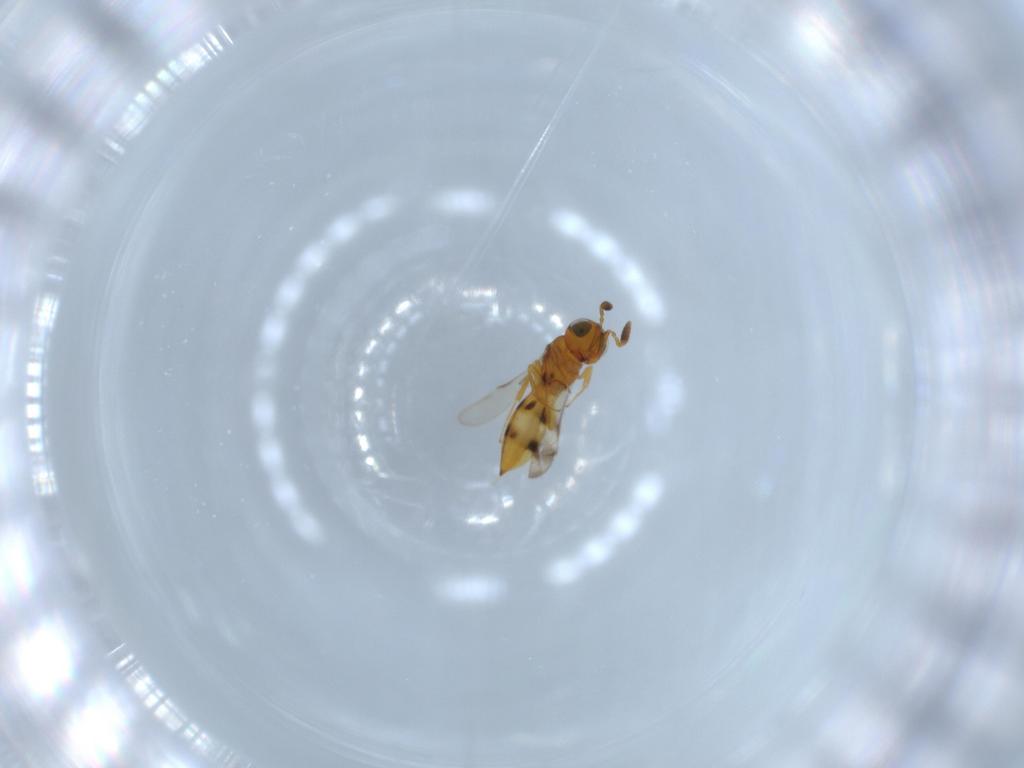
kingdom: Animalia
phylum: Arthropoda
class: Insecta
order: Hymenoptera
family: Scelionidae
